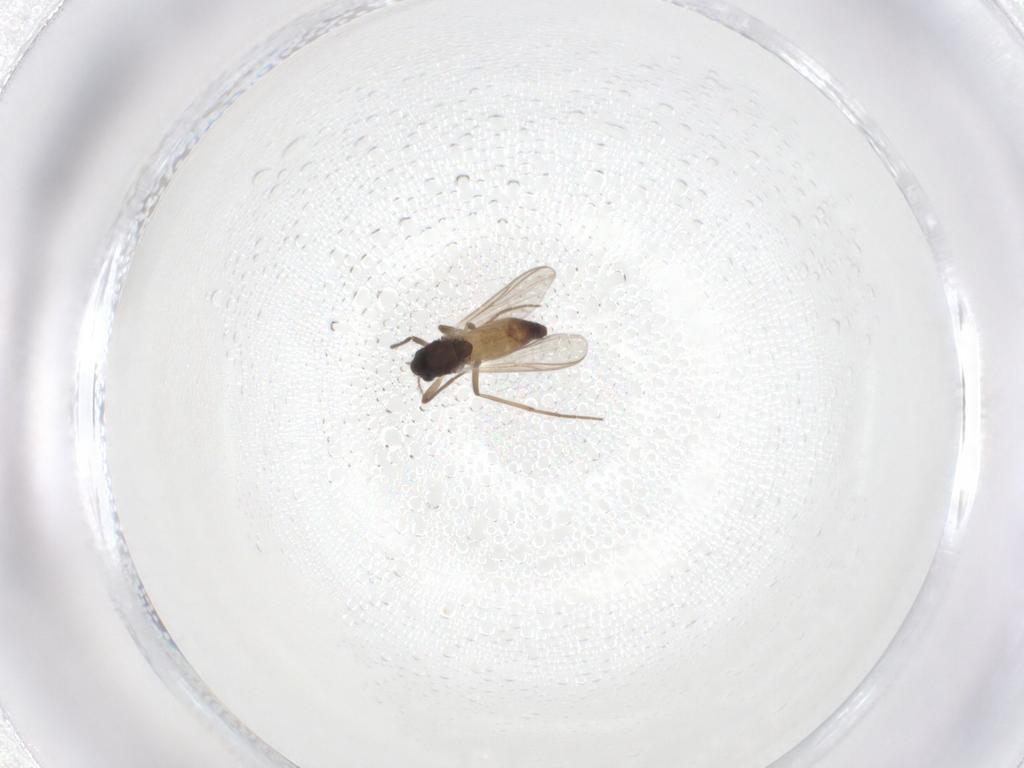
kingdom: Animalia
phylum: Arthropoda
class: Insecta
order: Diptera
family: Chironomidae
